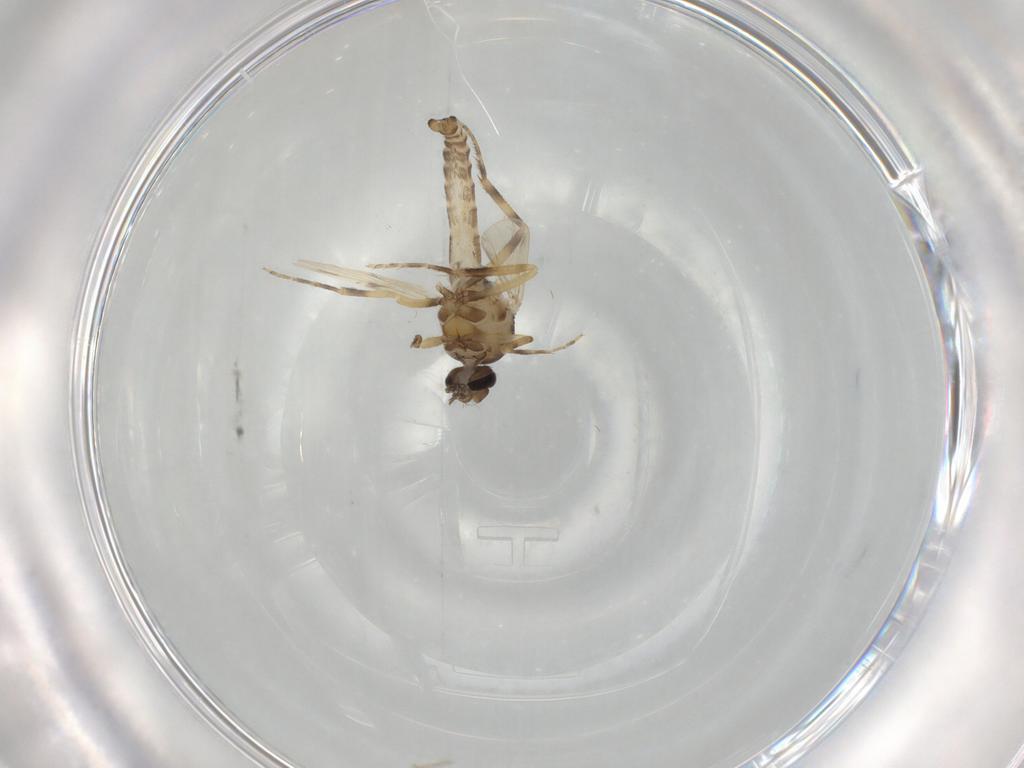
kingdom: Animalia
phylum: Arthropoda
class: Insecta
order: Diptera
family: Ceratopogonidae
